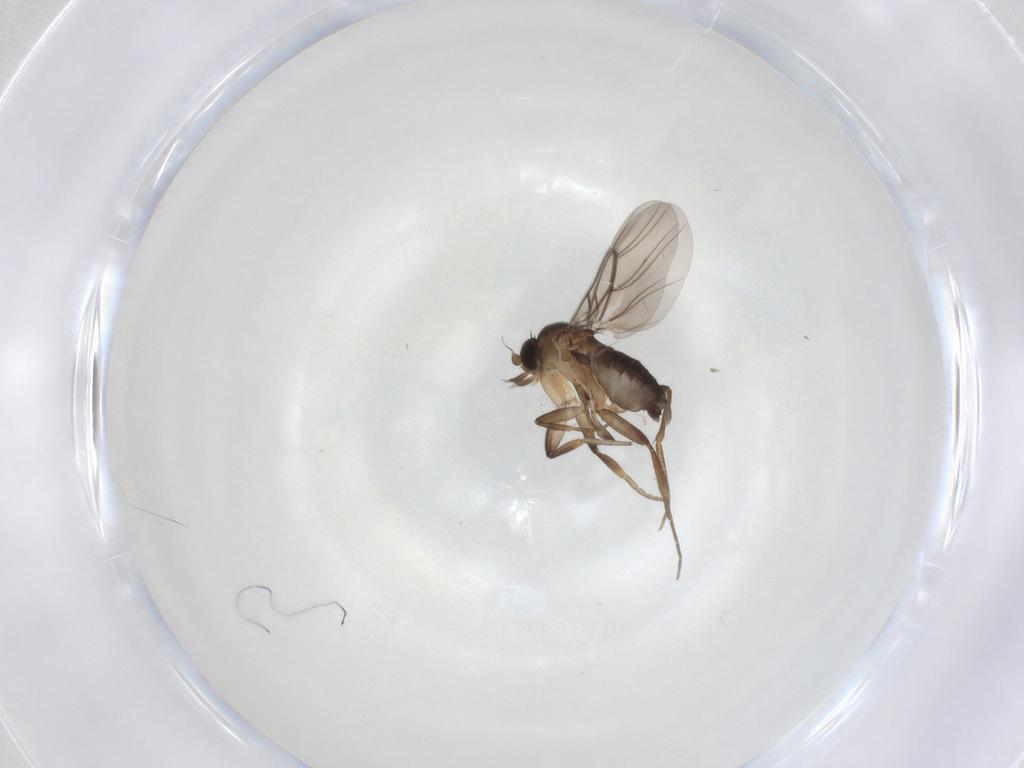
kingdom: Animalia
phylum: Arthropoda
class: Insecta
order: Diptera
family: Phoridae
